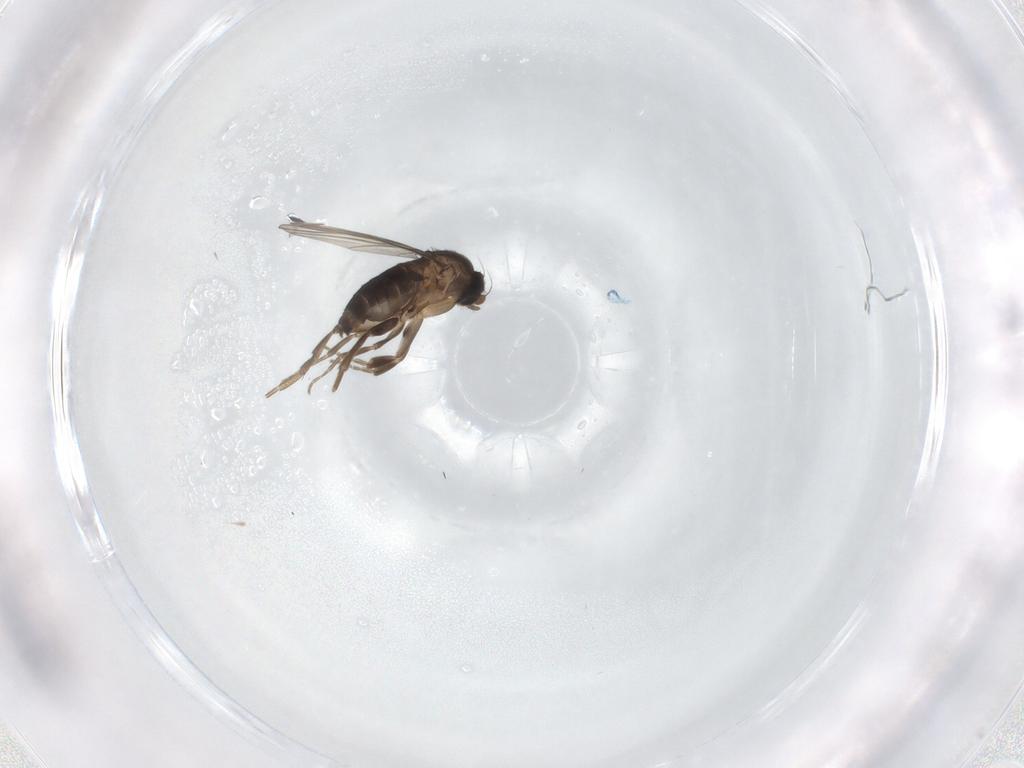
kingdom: Animalia
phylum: Arthropoda
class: Insecta
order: Diptera
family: Phoridae
